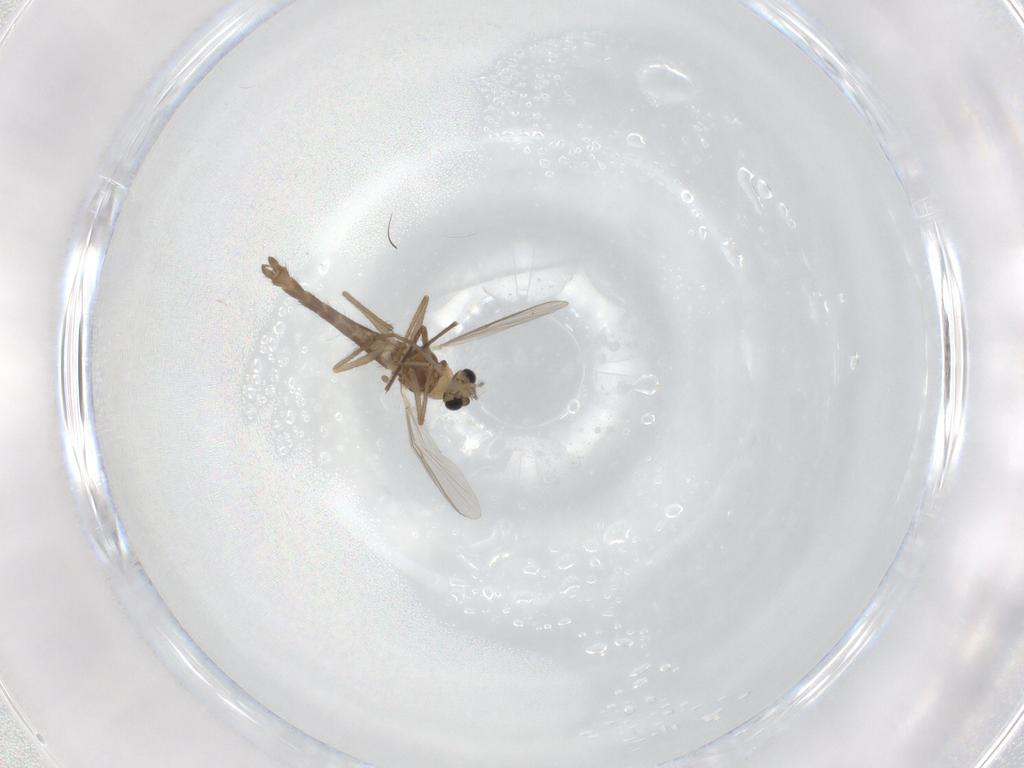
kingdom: Animalia
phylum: Arthropoda
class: Insecta
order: Diptera
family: Chironomidae
